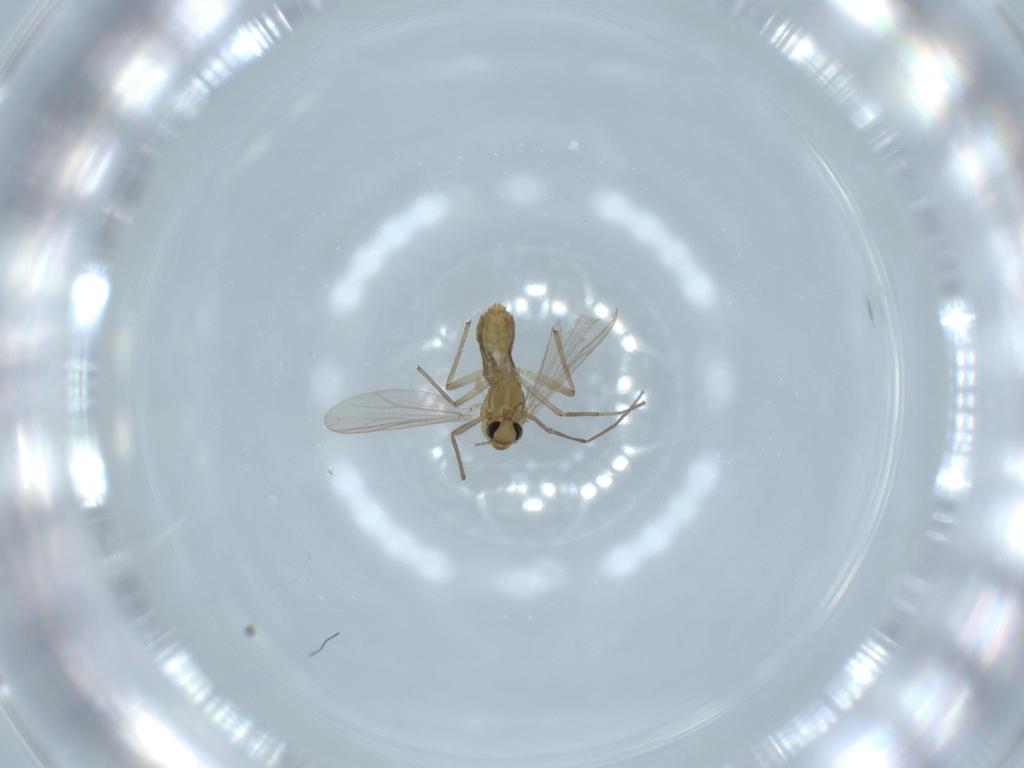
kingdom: Animalia
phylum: Arthropoda
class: Insecta
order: Diptera
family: Chironomidae
